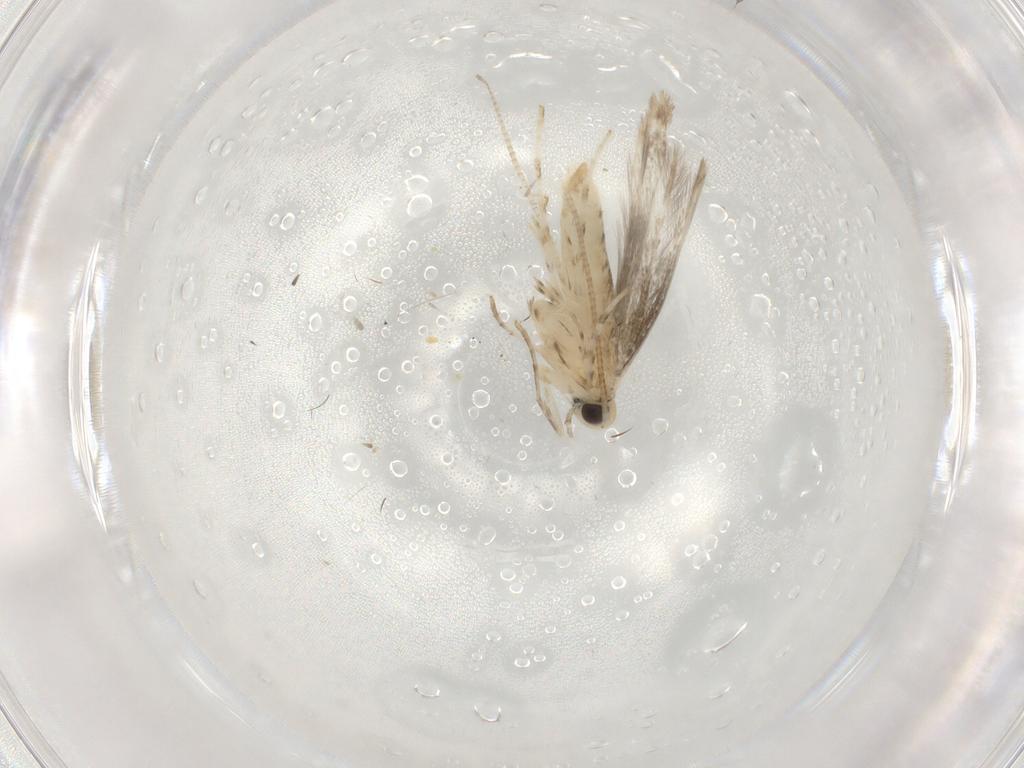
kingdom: Animalia
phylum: Arthropoda
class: Insecta
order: Lepidoptera
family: Gracillariidae
